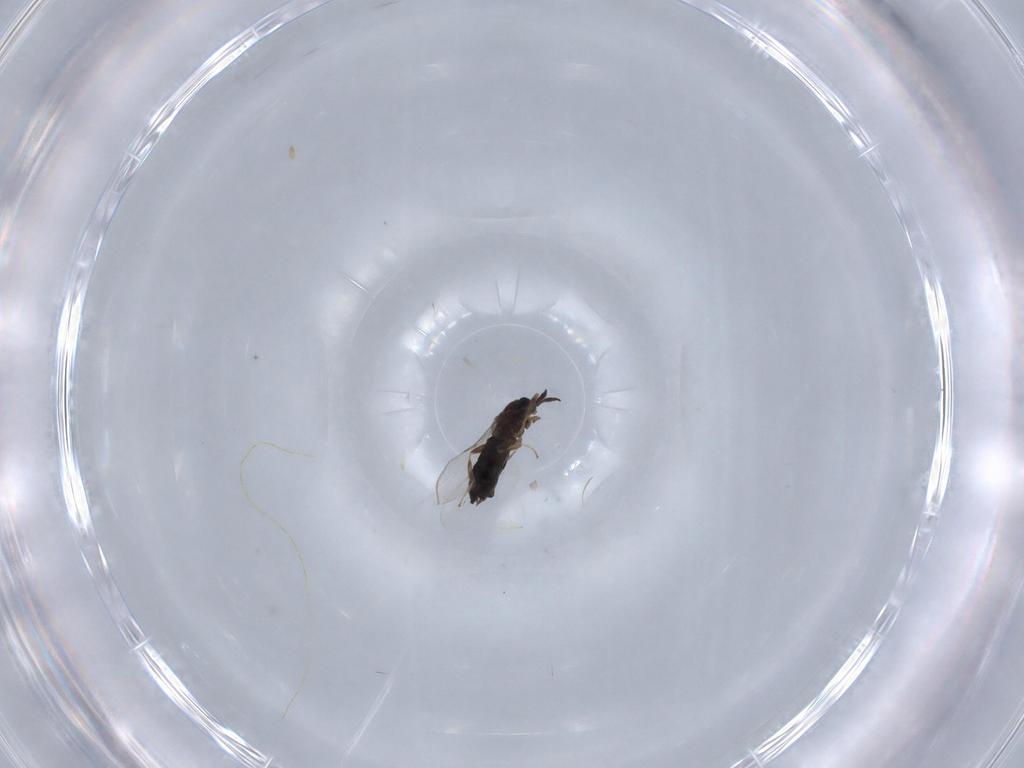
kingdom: Animalia
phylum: Arthropoda
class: Insecta
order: Diptera
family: Scatopsidae
